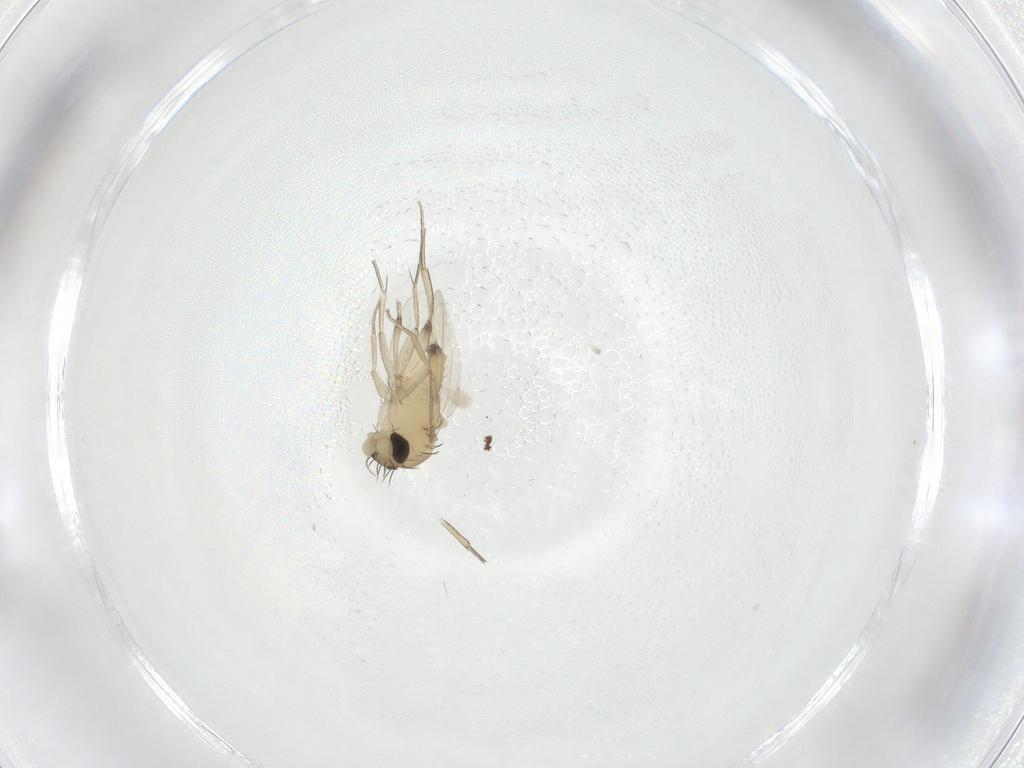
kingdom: Animalia
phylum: Arthropoda
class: Insecta
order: Diptera
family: Phoridae
